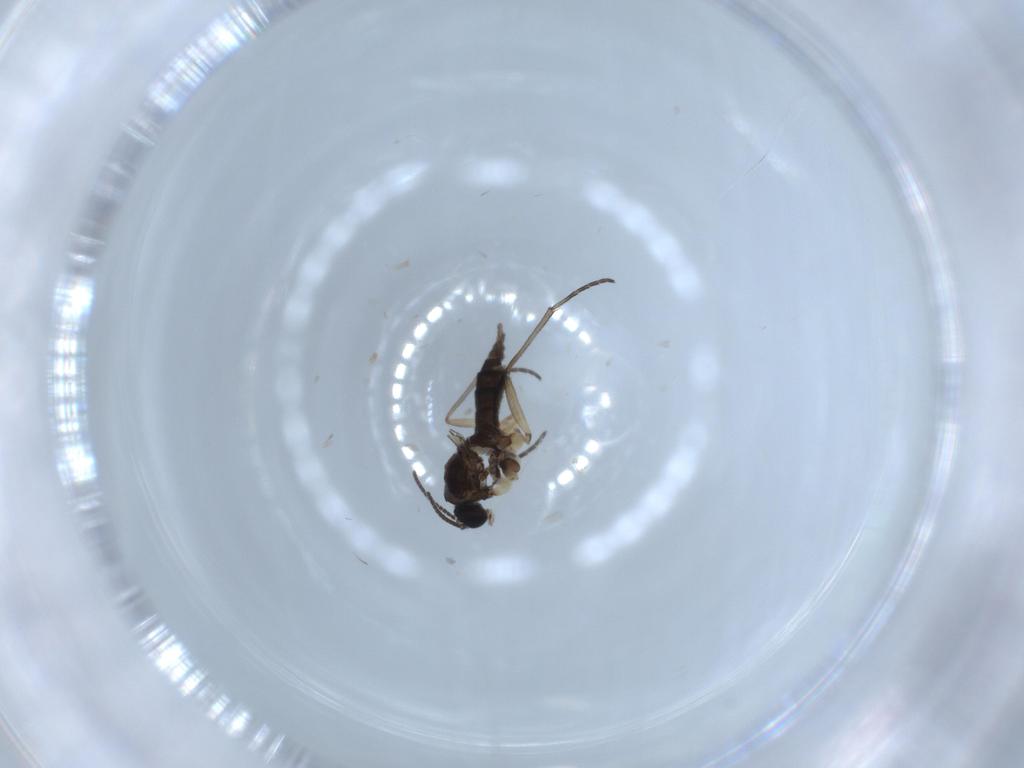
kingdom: Animalia
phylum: Arthropoda
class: Insecta
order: Diptera
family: Sciaridae
